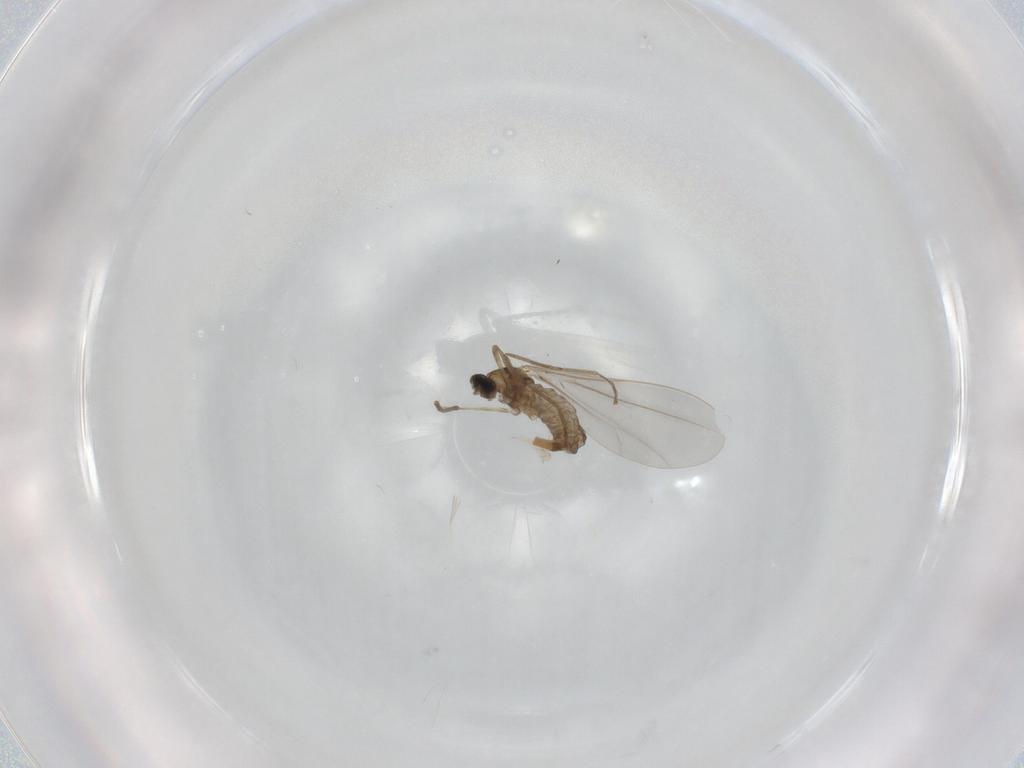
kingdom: Animalia
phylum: Arthropoda
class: Insecta
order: Diptera
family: Cecidomyiidae
